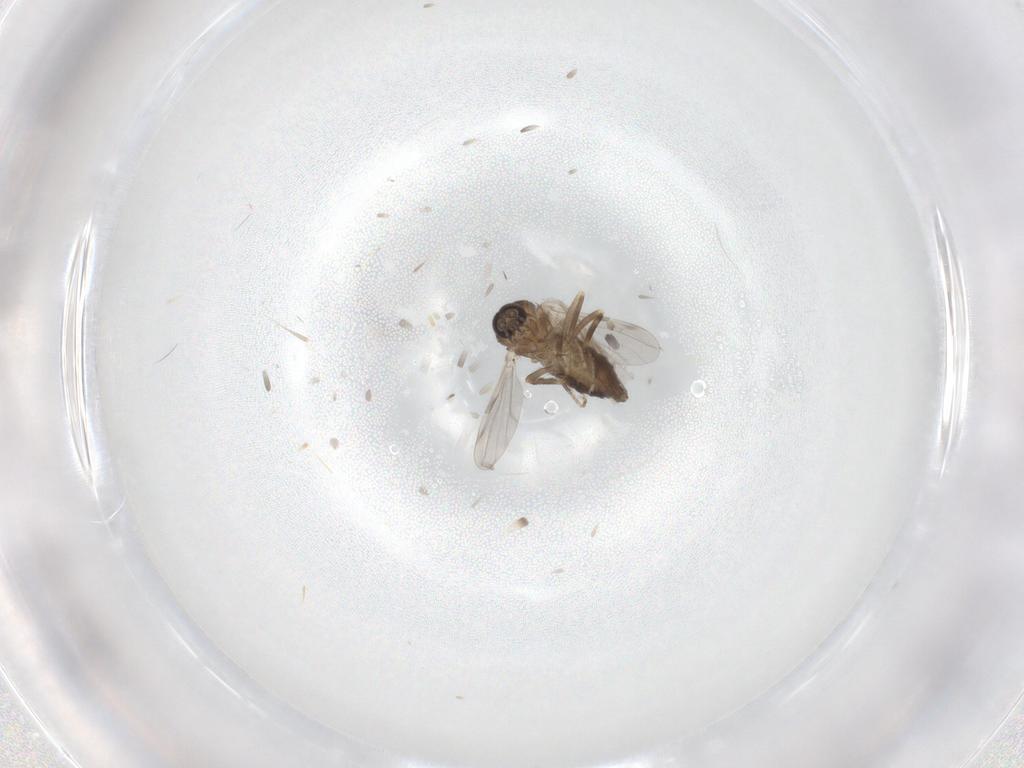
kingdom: Animalia
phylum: Arthropoda
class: Insecta
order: Diptera
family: Ceratopogonidae
